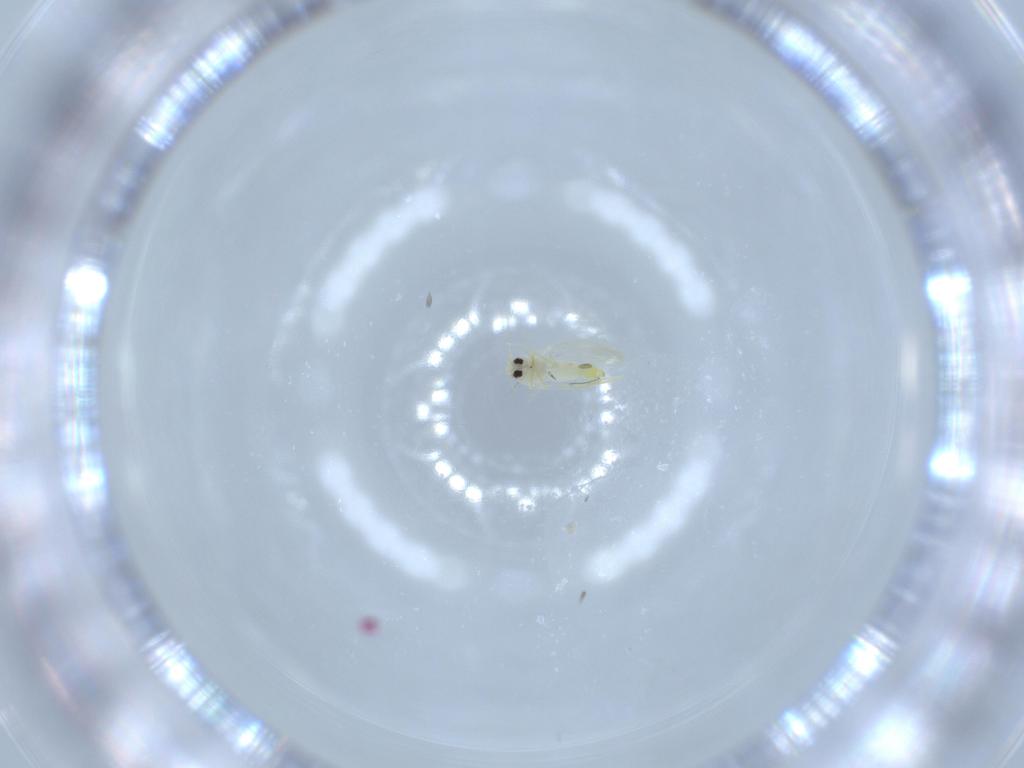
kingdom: Animalia
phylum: Arthropoda
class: Insecta
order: Hemiptera
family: Aleyrodidae
